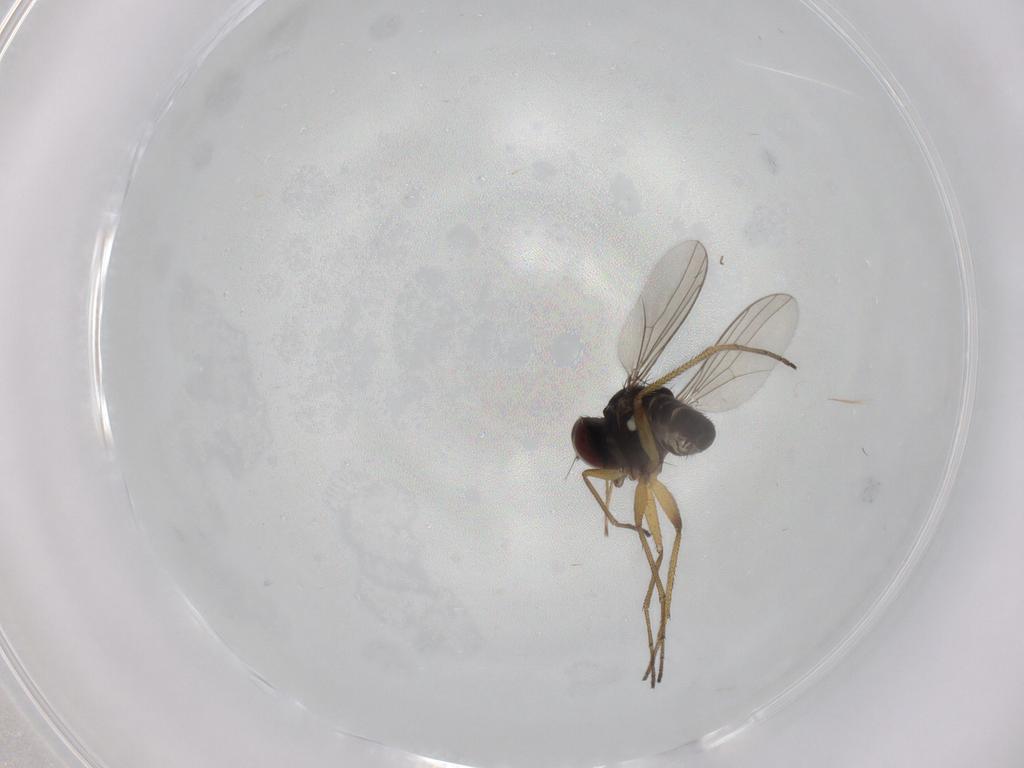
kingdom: Animalia
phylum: Arthropoda
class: Insecta
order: Diptera
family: Dolichopodidae
